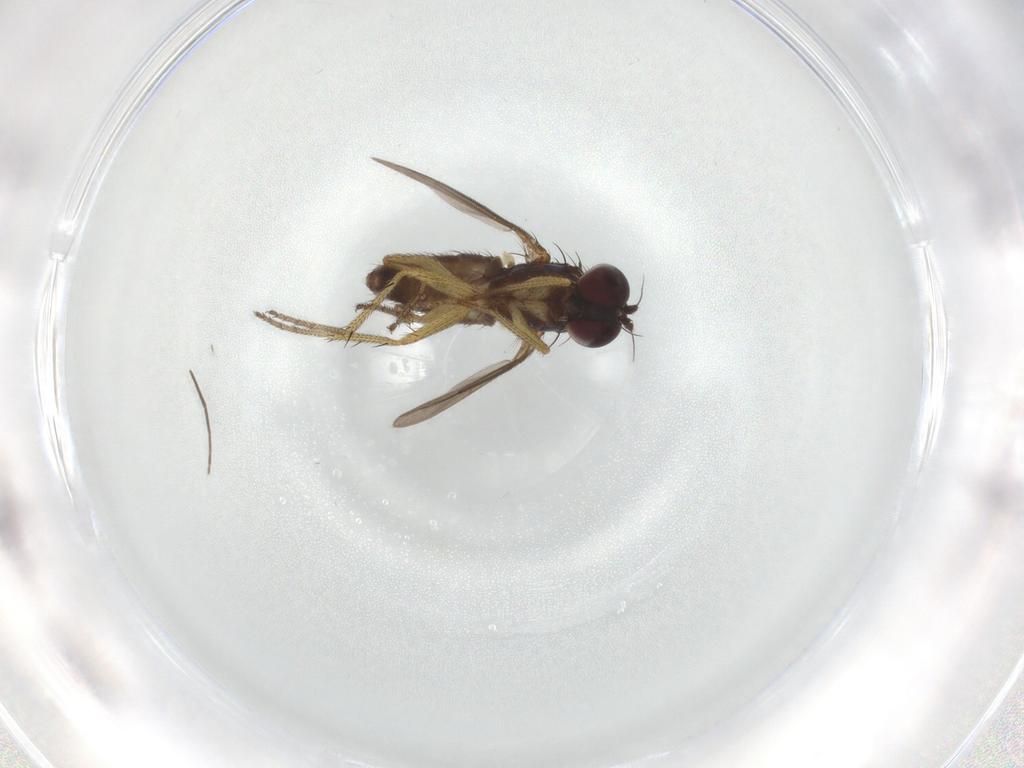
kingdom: Animalia
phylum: Arthropoda
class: Insecta
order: Diptera
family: Dolichopodidae
